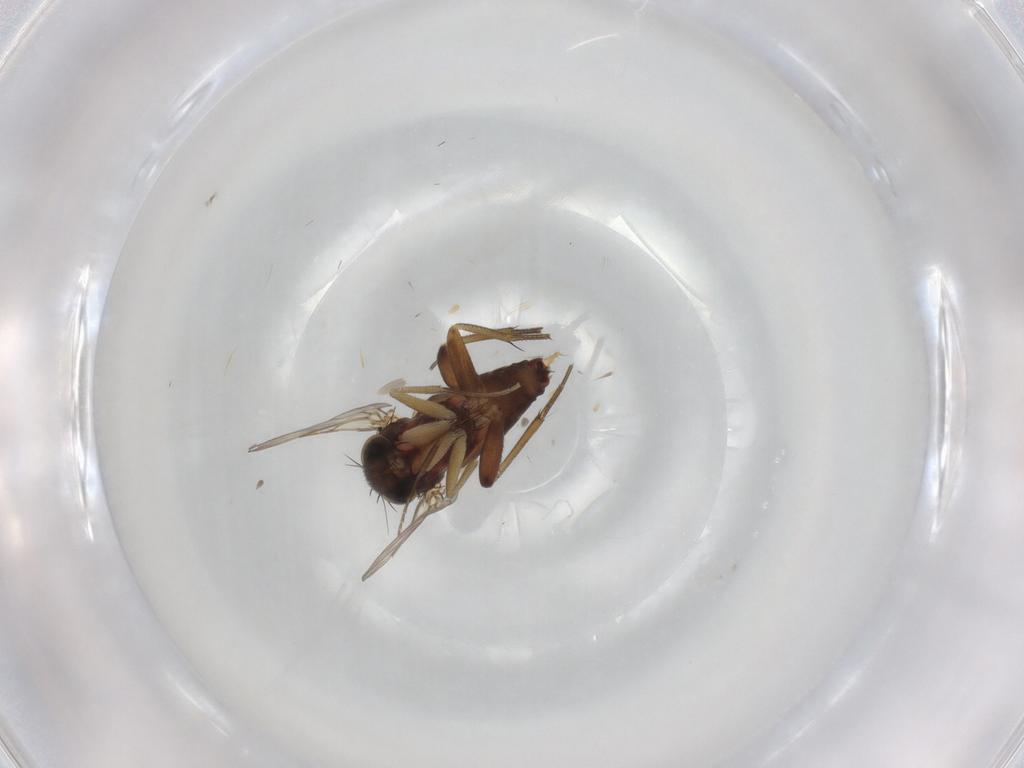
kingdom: Animalia
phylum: Arthropoda
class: Insecta
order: Diptera
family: Phoridae
